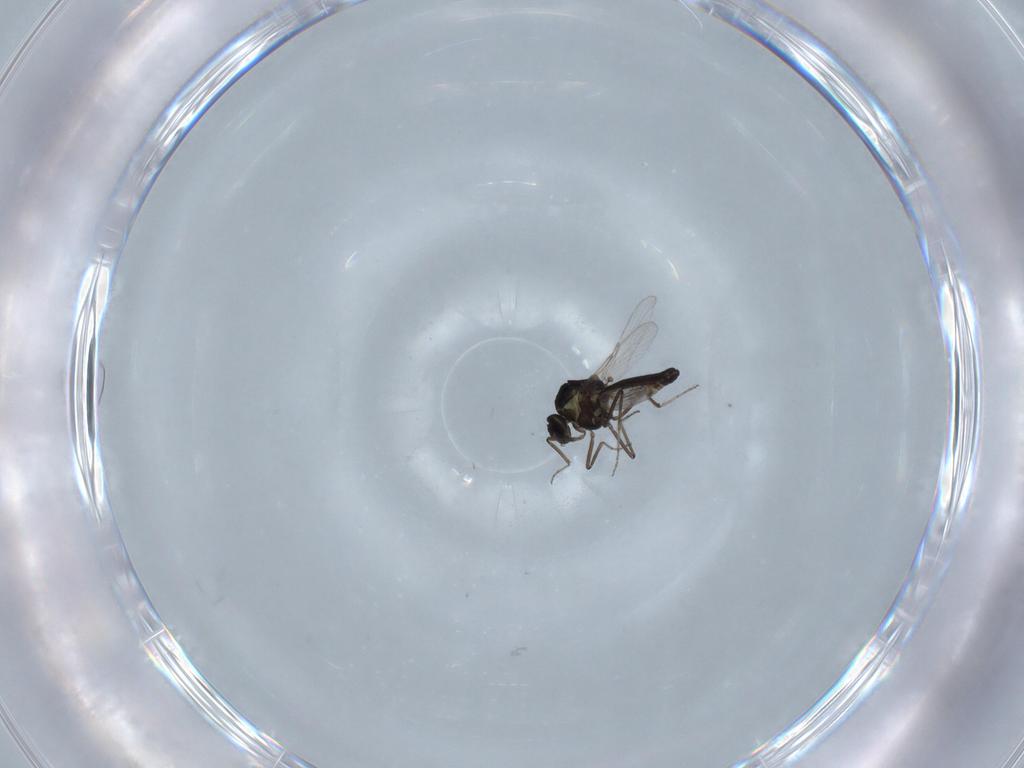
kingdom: Animalia
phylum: Arthropoda
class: Insecta
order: Diptera
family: Ceratopogonidae
